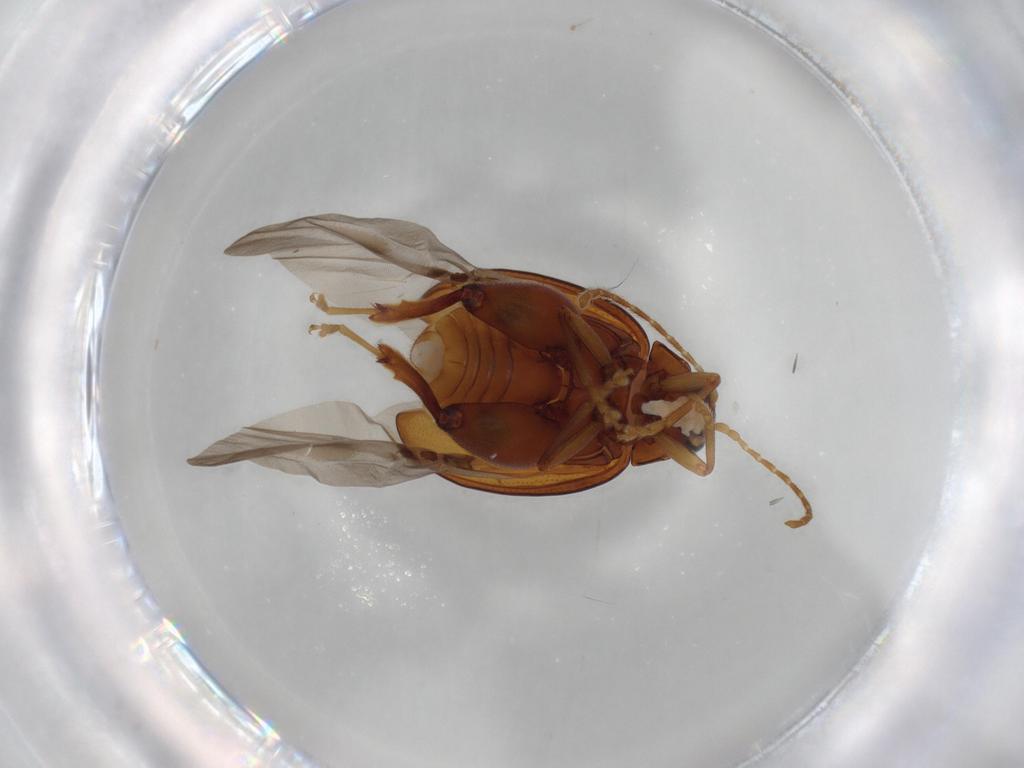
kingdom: Animalia
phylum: Arthropoda
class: Insecta
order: Coleoptera
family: Chrysomelidae
